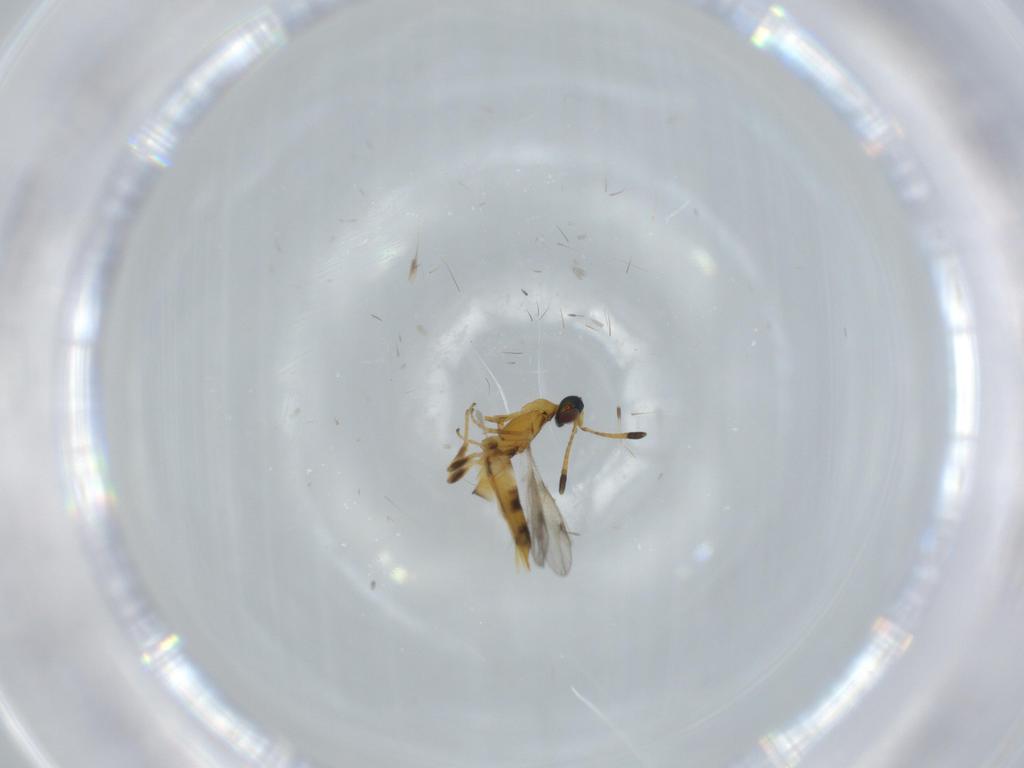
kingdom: Animalia
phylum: Arthropoda
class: Insecta
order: Hymenoptera
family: Eupelmidae
